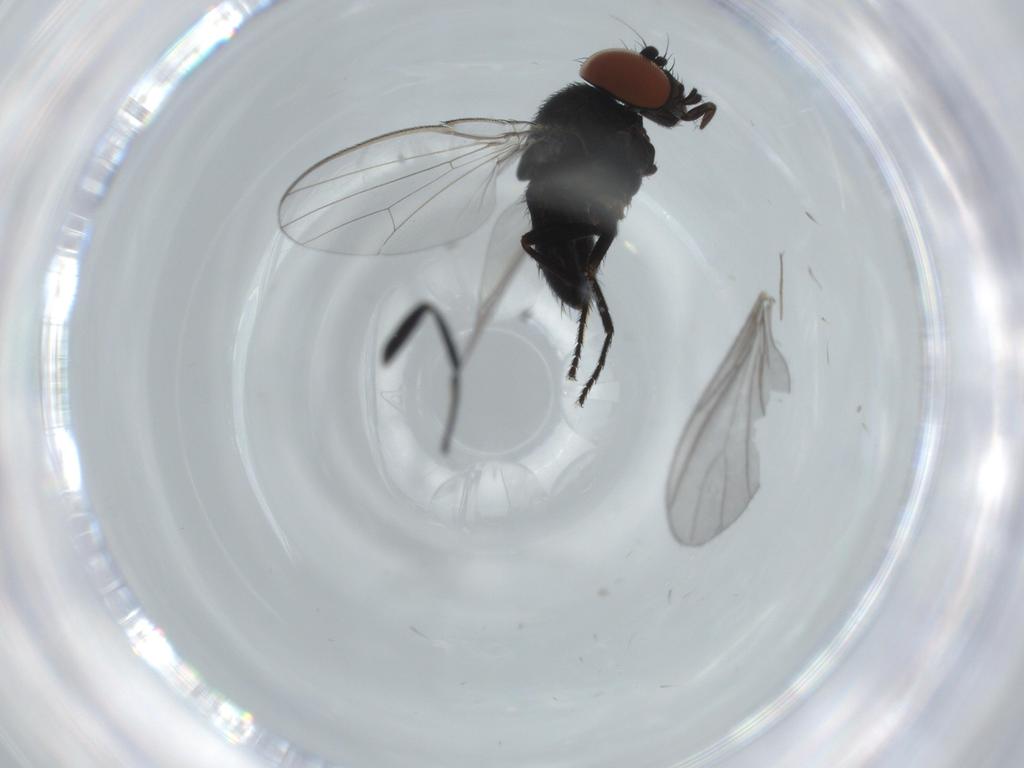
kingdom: Animalia
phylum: Arthropoda
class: Insecta
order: Diptera
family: Milichiidae
